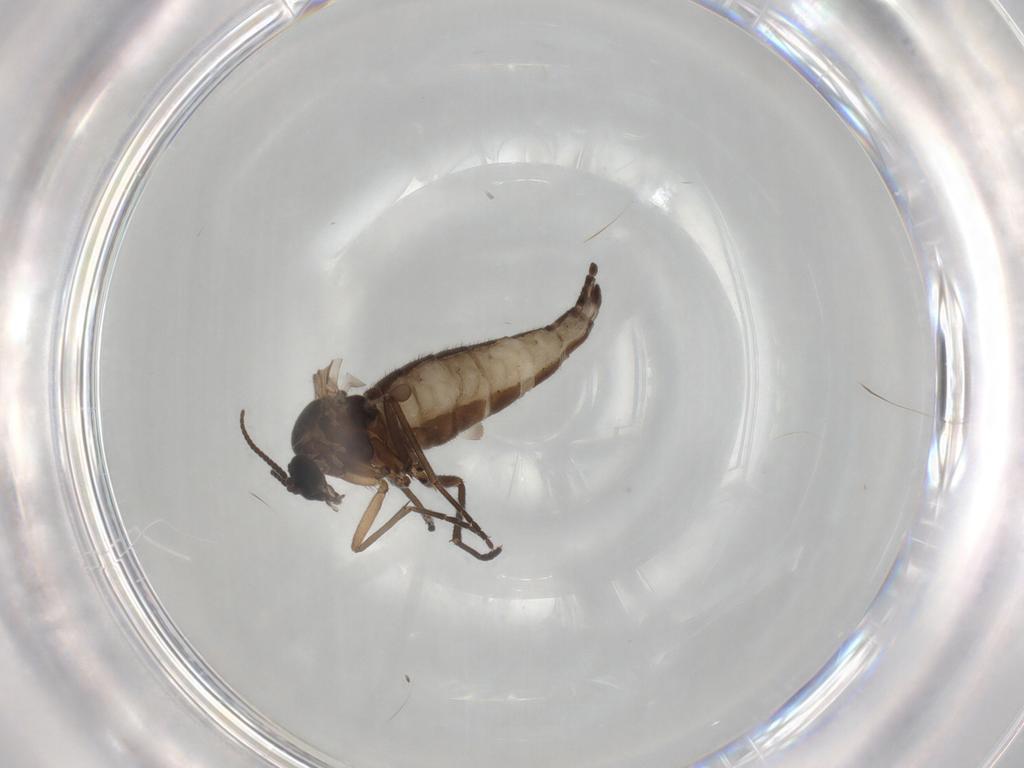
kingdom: Animalia
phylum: Arthropoda
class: Insecta
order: Diptera
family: Sciaridae
